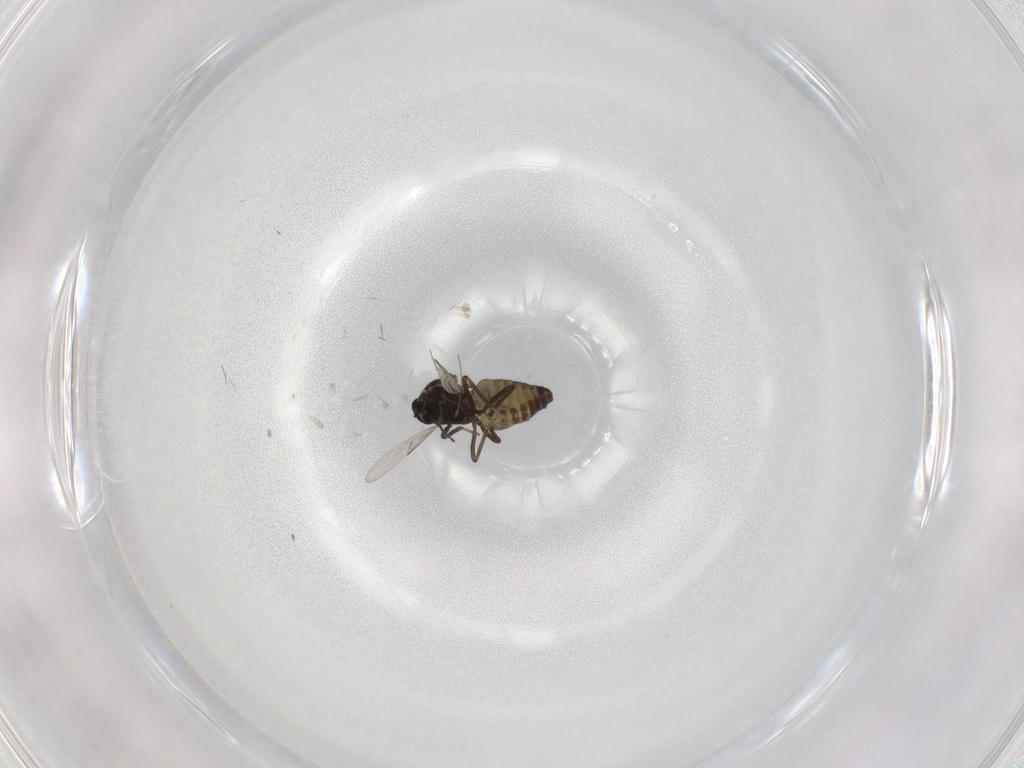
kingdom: Animalia
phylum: Arthropoda
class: Insecta
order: Diptera
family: Ceratopogonidae
